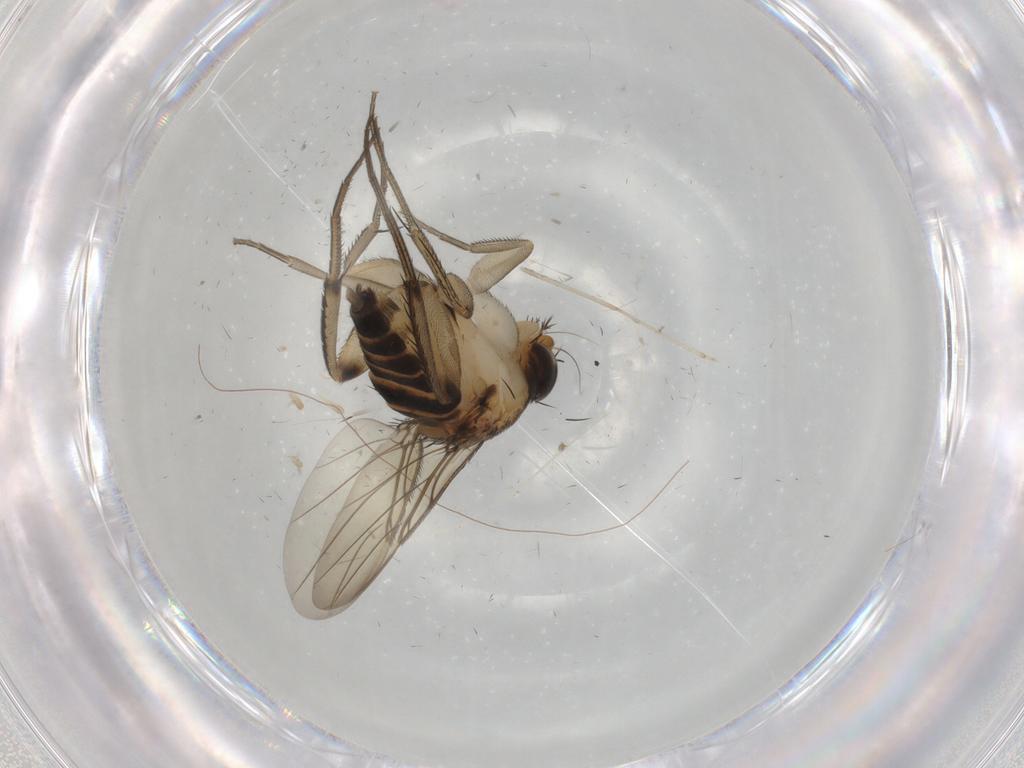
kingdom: Animalia
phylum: Arthropoda
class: Insecta
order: Diptera
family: Phoridae
